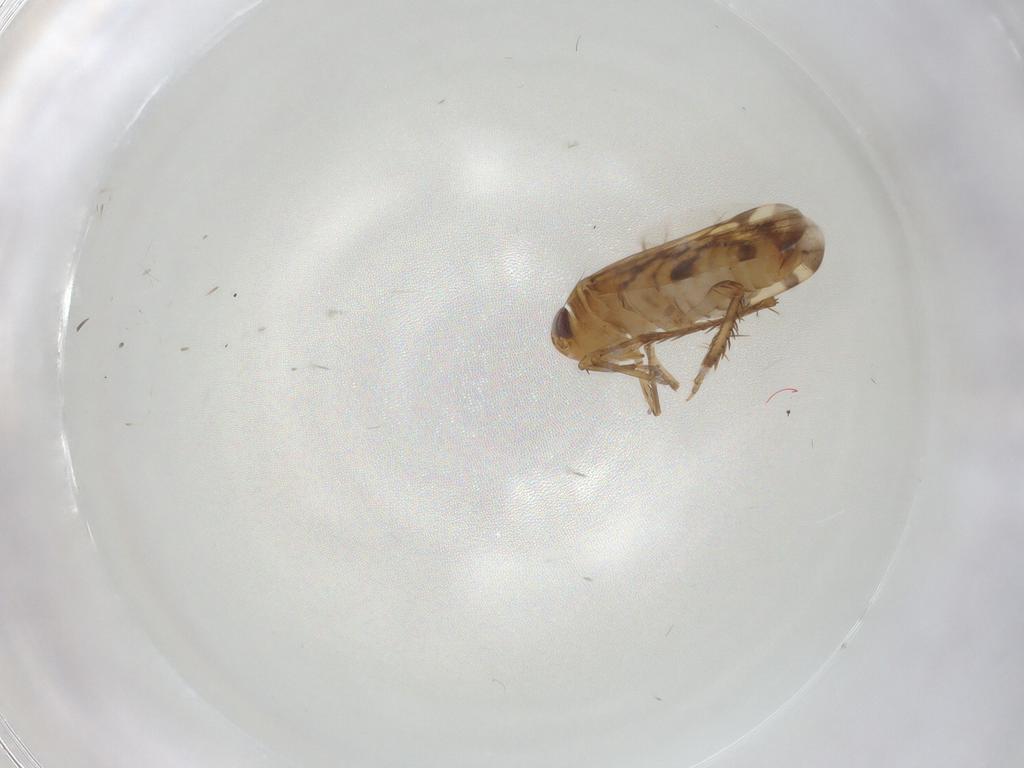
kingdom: Animalia
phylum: Arthropoda
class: Insecta
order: Hemiptera
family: Cicadellidae
